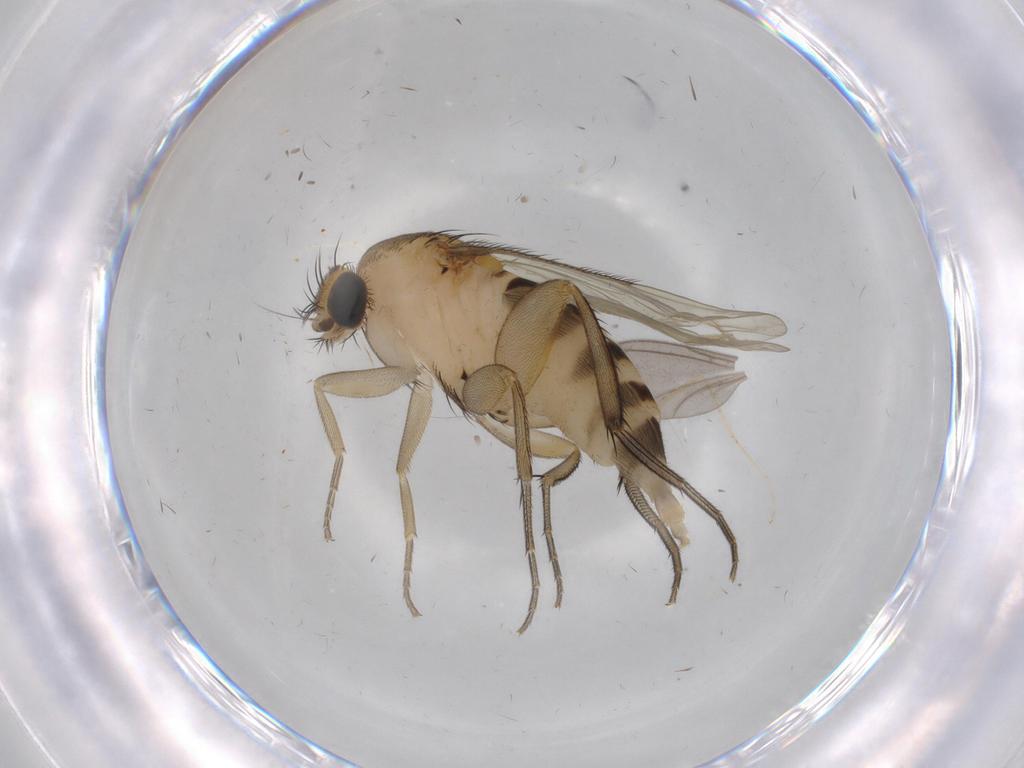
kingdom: Animalia
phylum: Arthropoda
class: Insecta
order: Diptera
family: Phoridae
